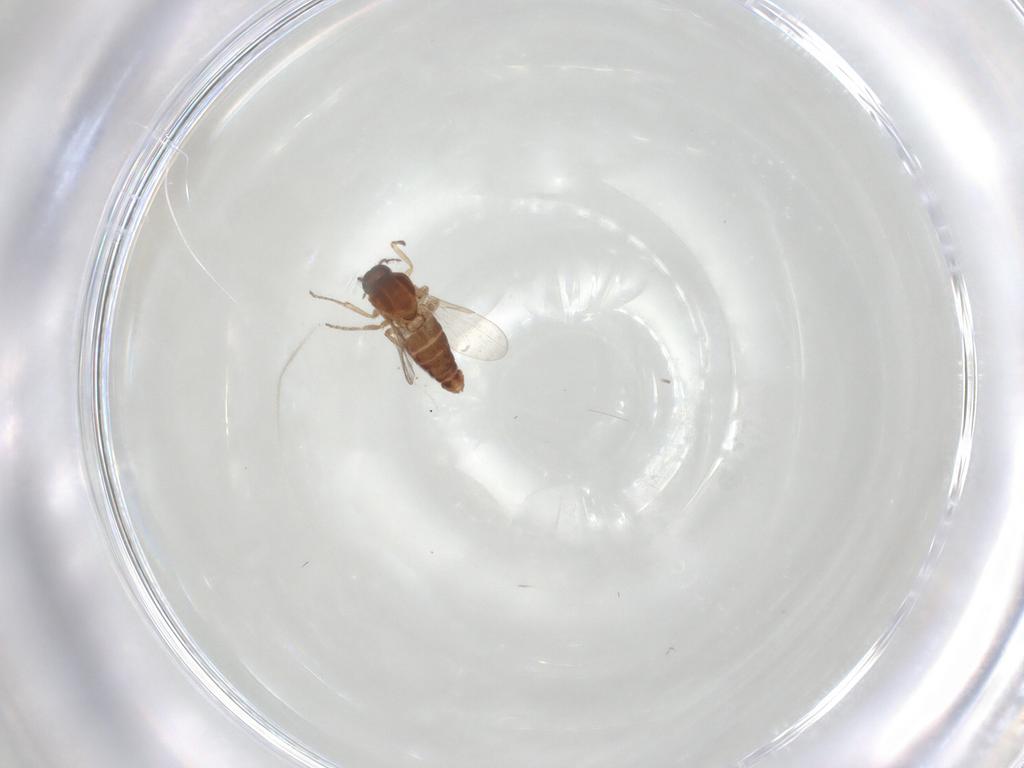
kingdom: Animalia
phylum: Arthropoda
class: Insecta
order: Diptera
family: Ceratopogonidae
